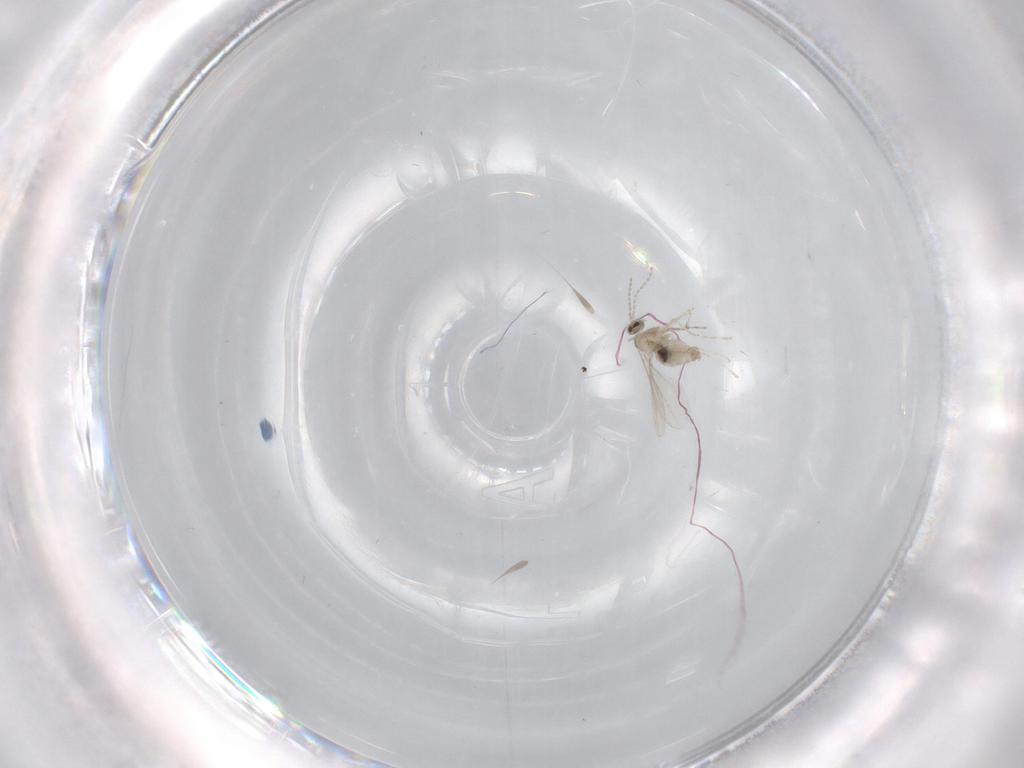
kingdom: Animalia
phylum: Arthropoda
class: Insecta
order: Diptera
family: Cecidomyiidae
